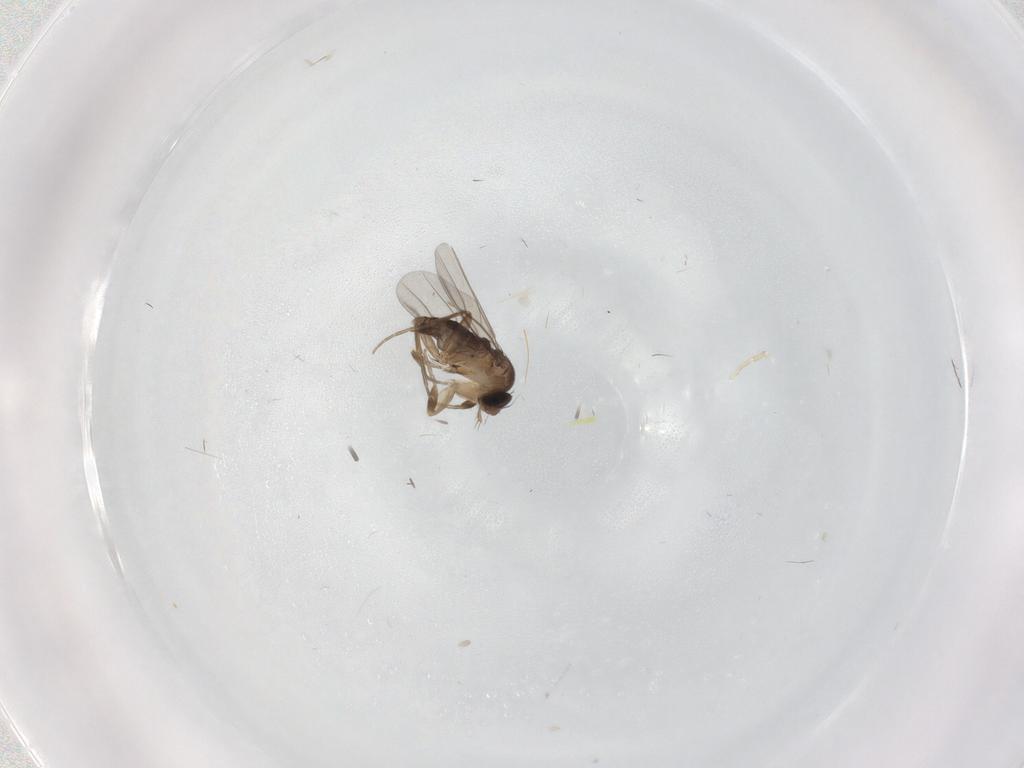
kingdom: Animalia
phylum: Arthropoda
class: Insecta
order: Diptera
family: Phoridae
